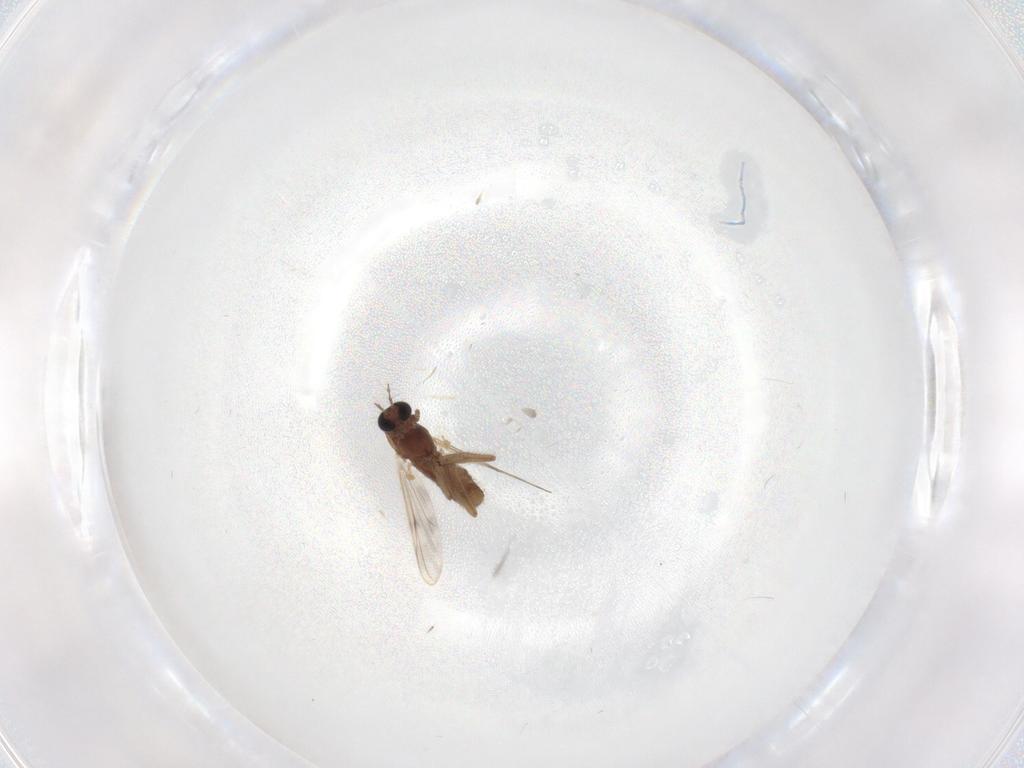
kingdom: Animalia
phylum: Arthropoda
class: Insecta
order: Diptera
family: Chironomidae
